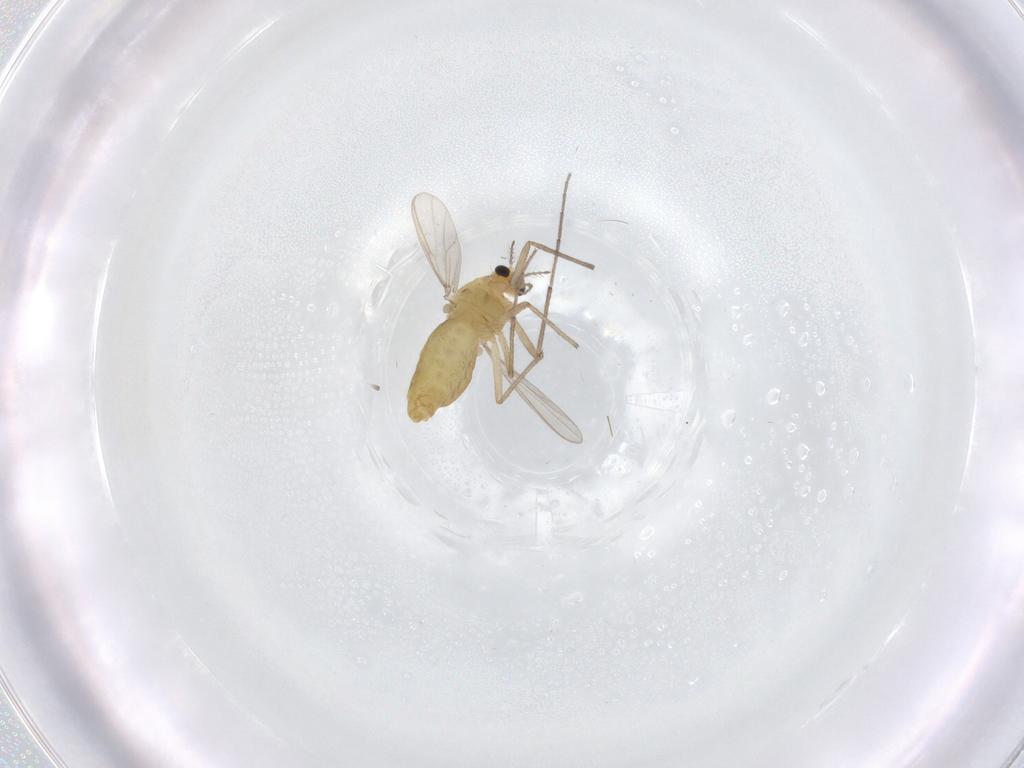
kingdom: Animalia
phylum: Arthropoda
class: Insecta
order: Diptera
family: Chironomidae
